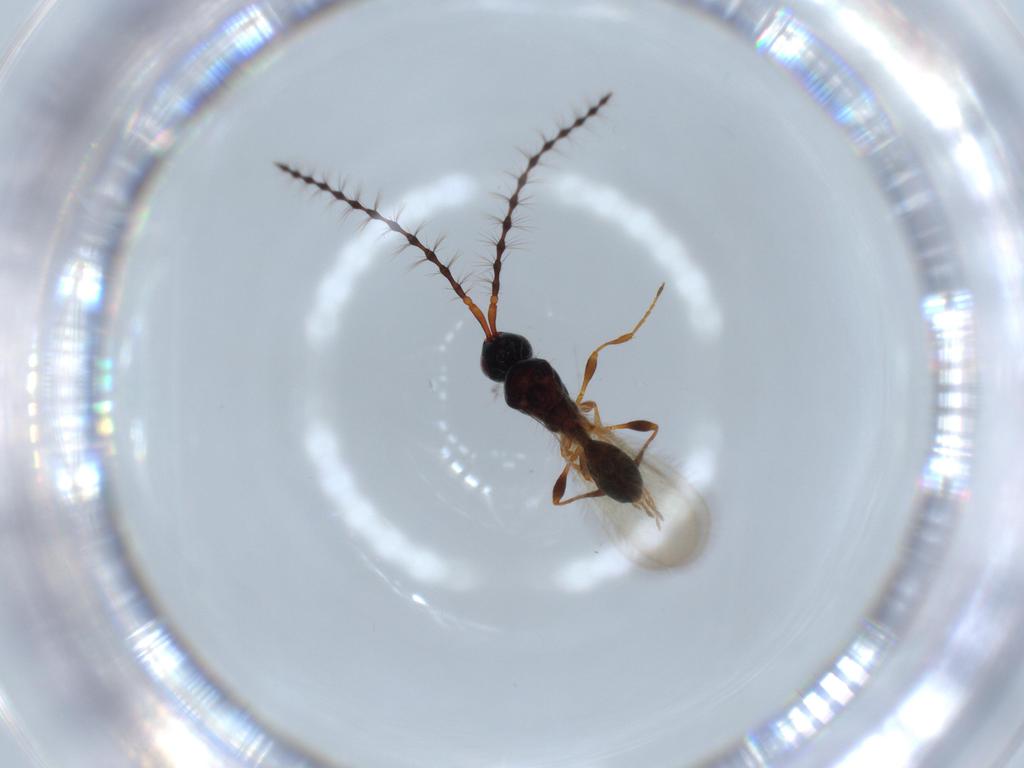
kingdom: Animalia
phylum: Arthropoda
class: Insecta
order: Hymenoptera
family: Diapriidae
